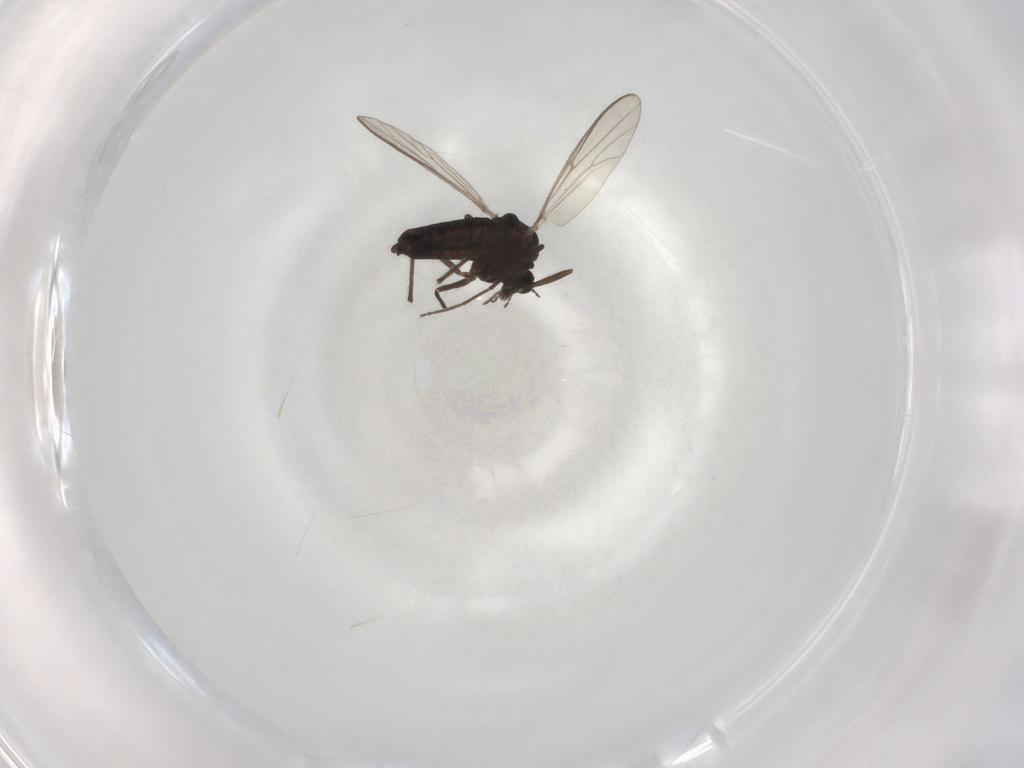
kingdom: Animalia
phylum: Arthropoda
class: Insecta
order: Diptera
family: Chironomidae
